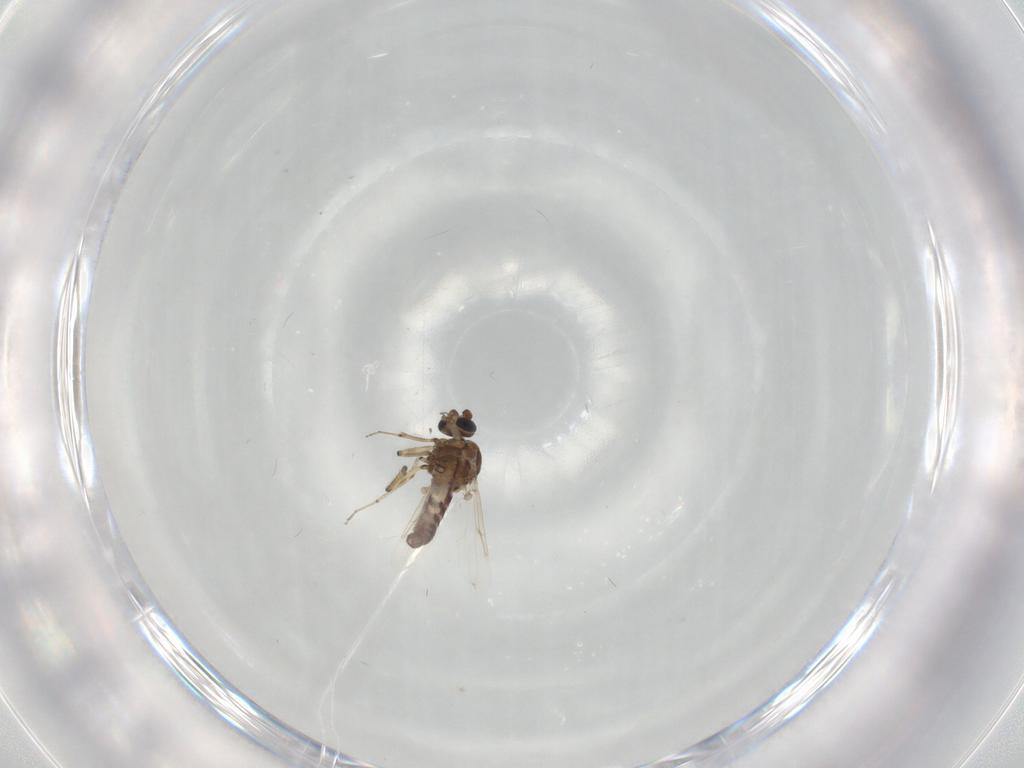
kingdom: Animalia
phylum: Arthropoda
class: Insecta
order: Diptera
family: Ceratopogonidae
